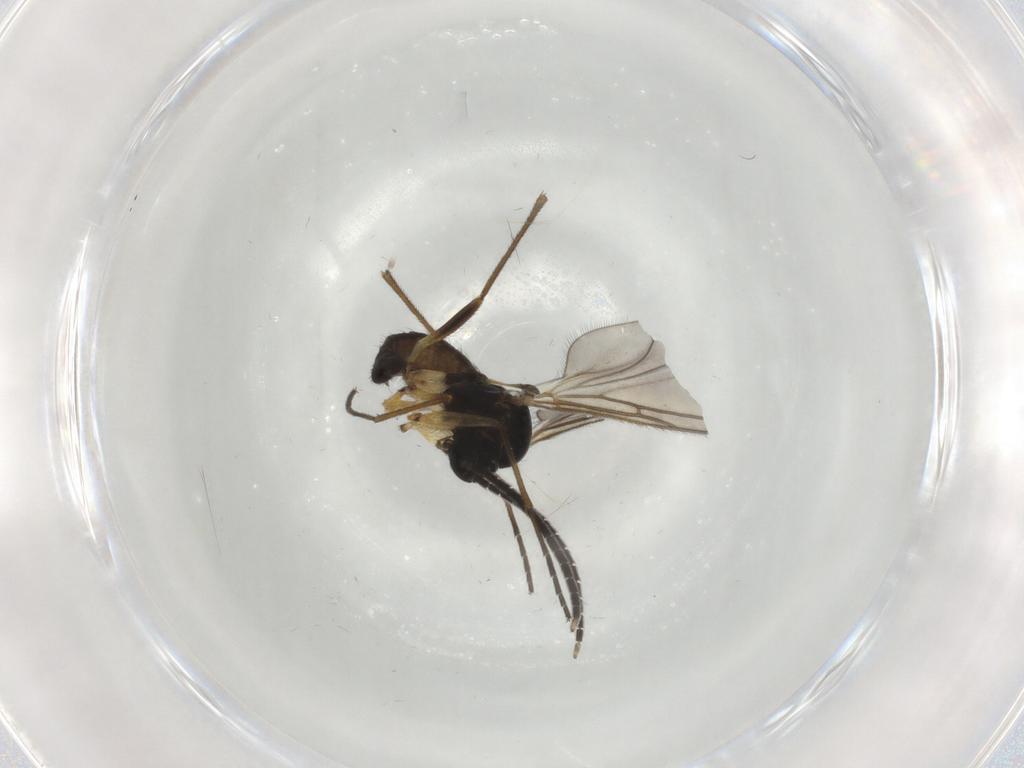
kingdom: Animalia
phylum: Arthropoda
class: Insecta
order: Diptera
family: Sciaridae
